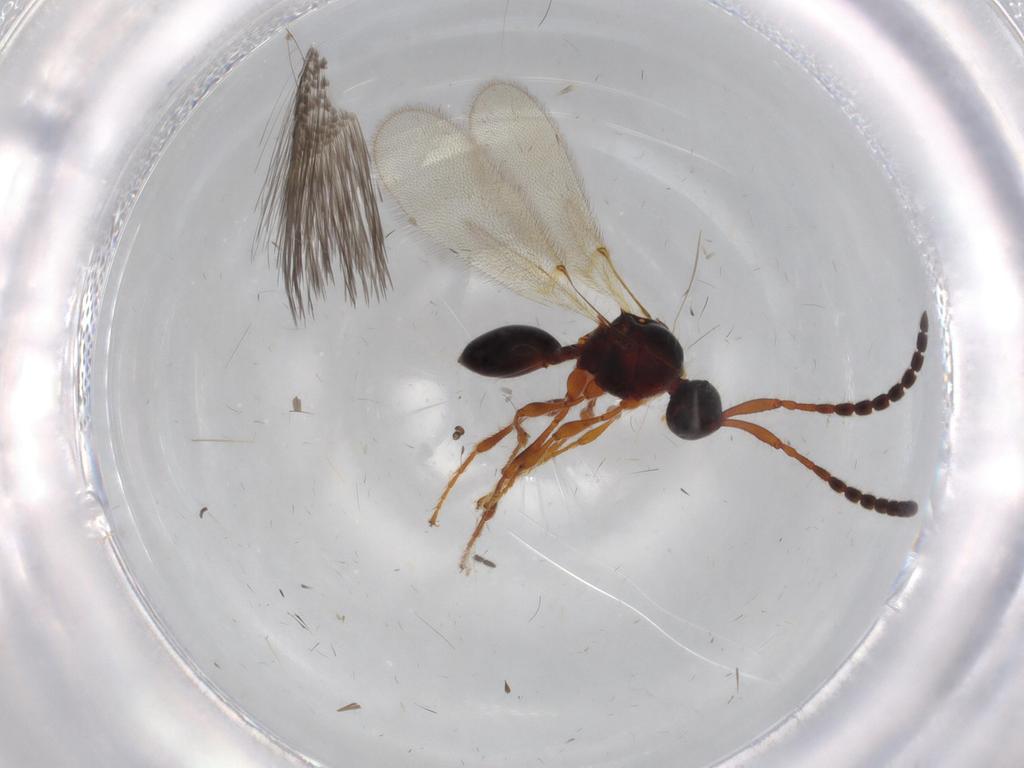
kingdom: Animalia
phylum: Arthropoda
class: Insecta
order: Hymenoptera
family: Diapriidae
